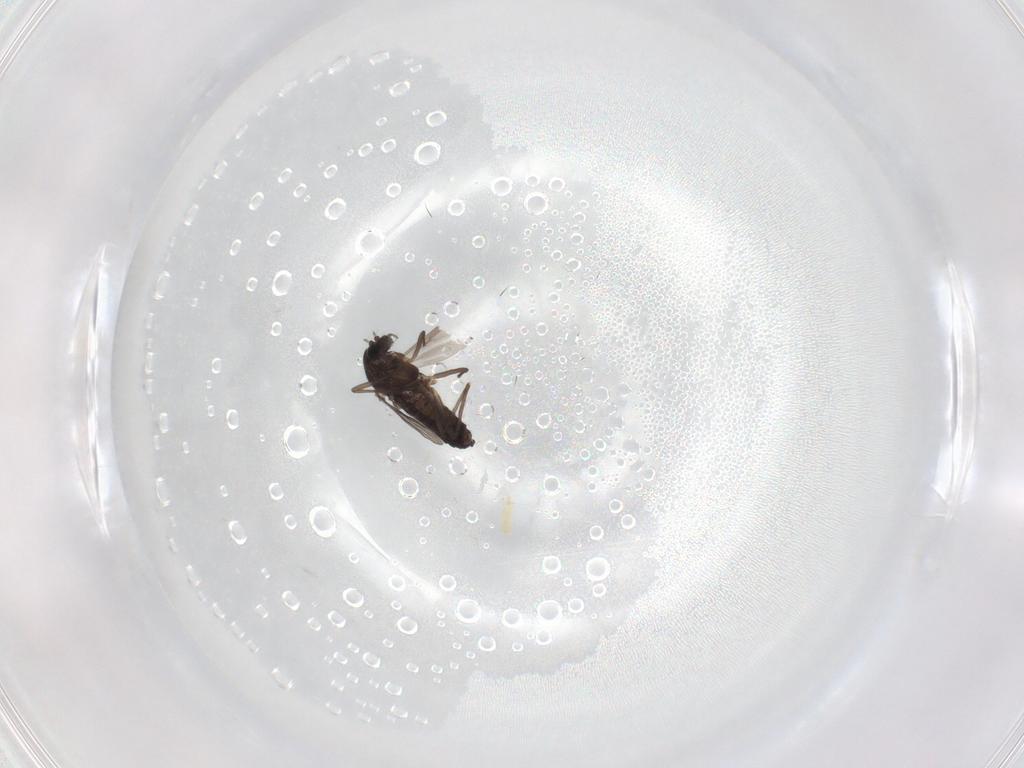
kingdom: Animalia
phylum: Arthropoda
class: Insecta
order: Diptera
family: Chironomidae
